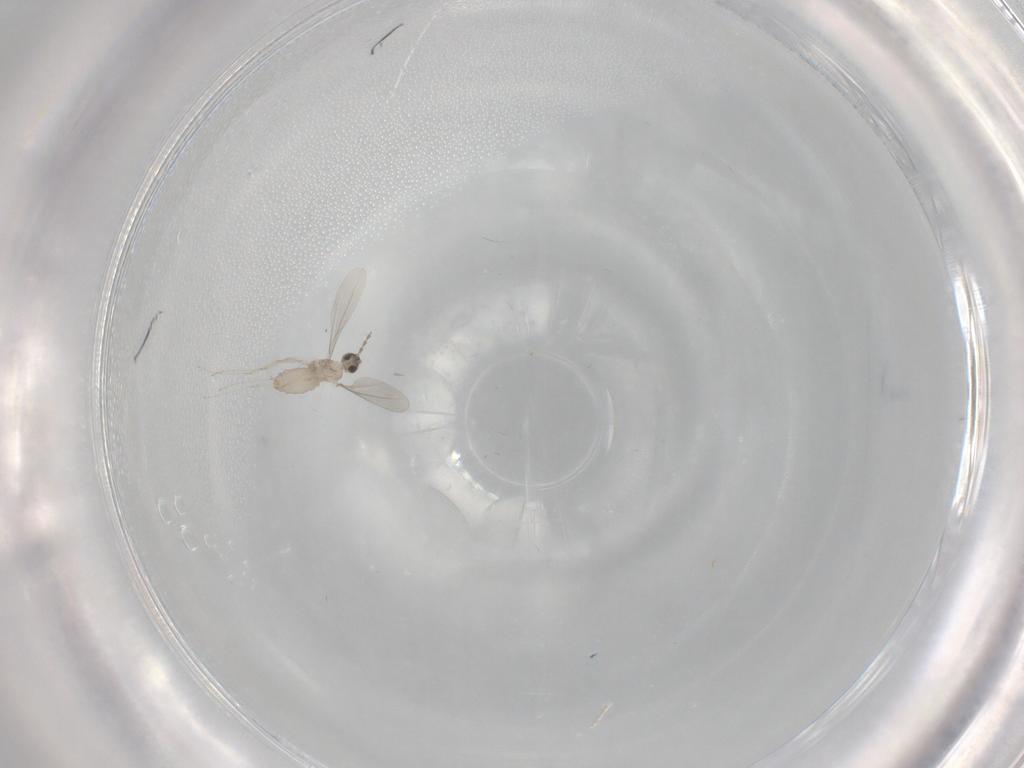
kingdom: Animalia
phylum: Arthropoda
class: Insecta
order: Diptera
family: Cecidomyiidae
